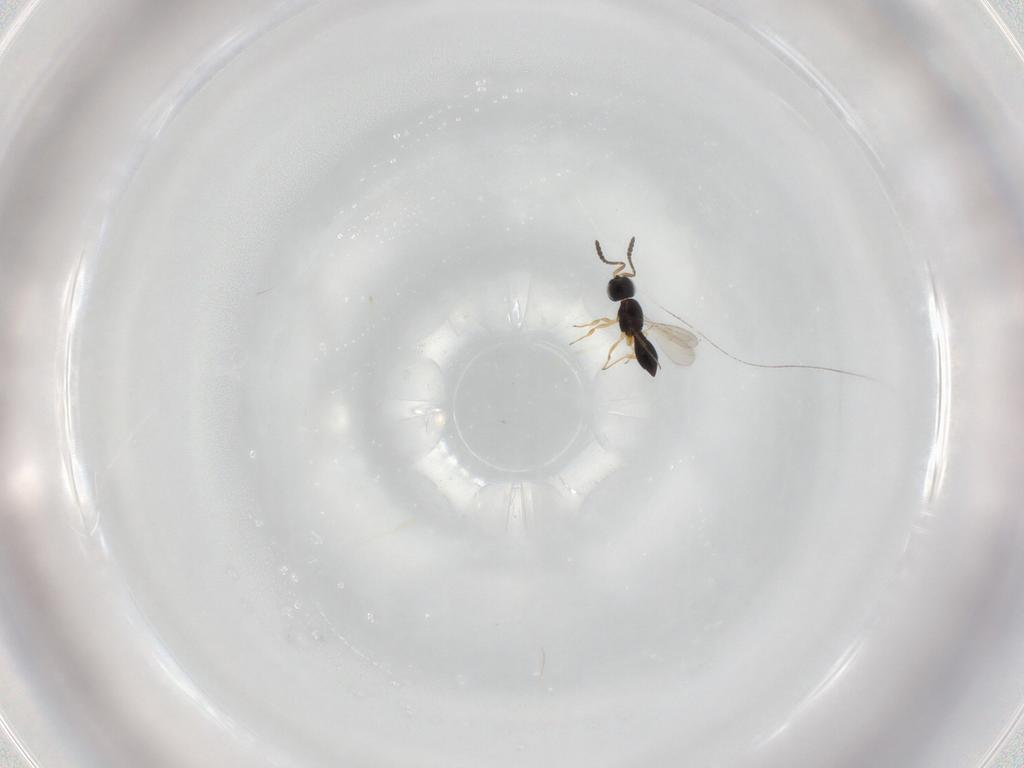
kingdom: Animalia
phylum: Arthropoda
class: Insecta
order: Hymenoptera
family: Scelionidae
